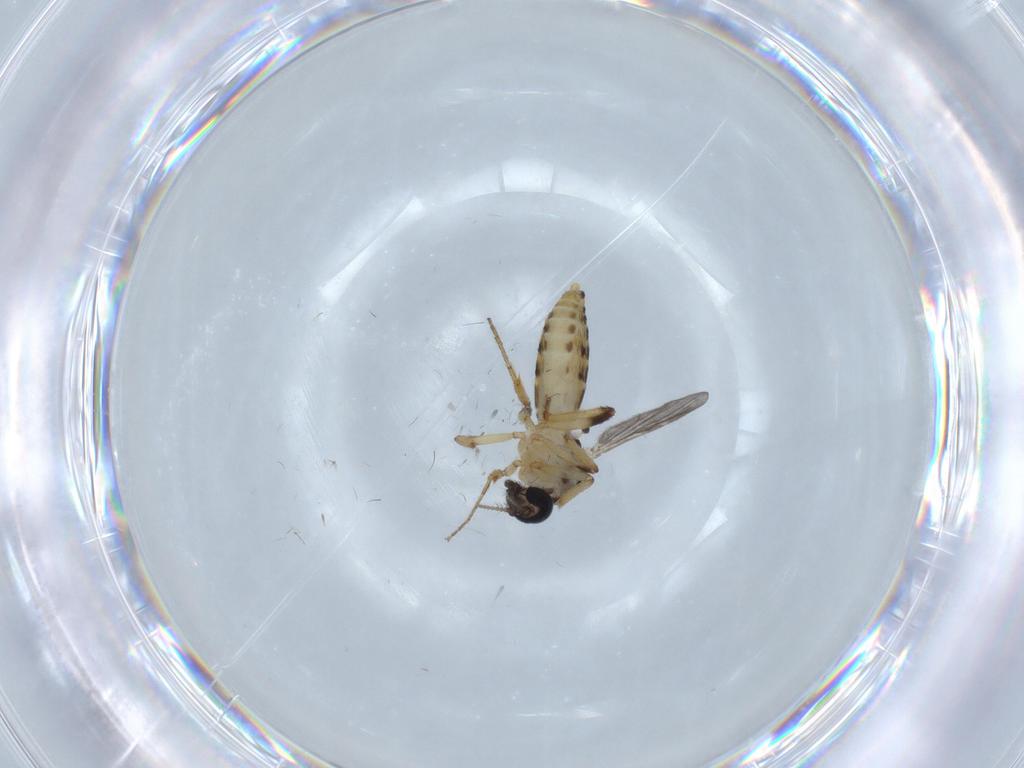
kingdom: Animalia
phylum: Arthropoda
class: Insecta
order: Diptera
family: Ceratopogonidae
